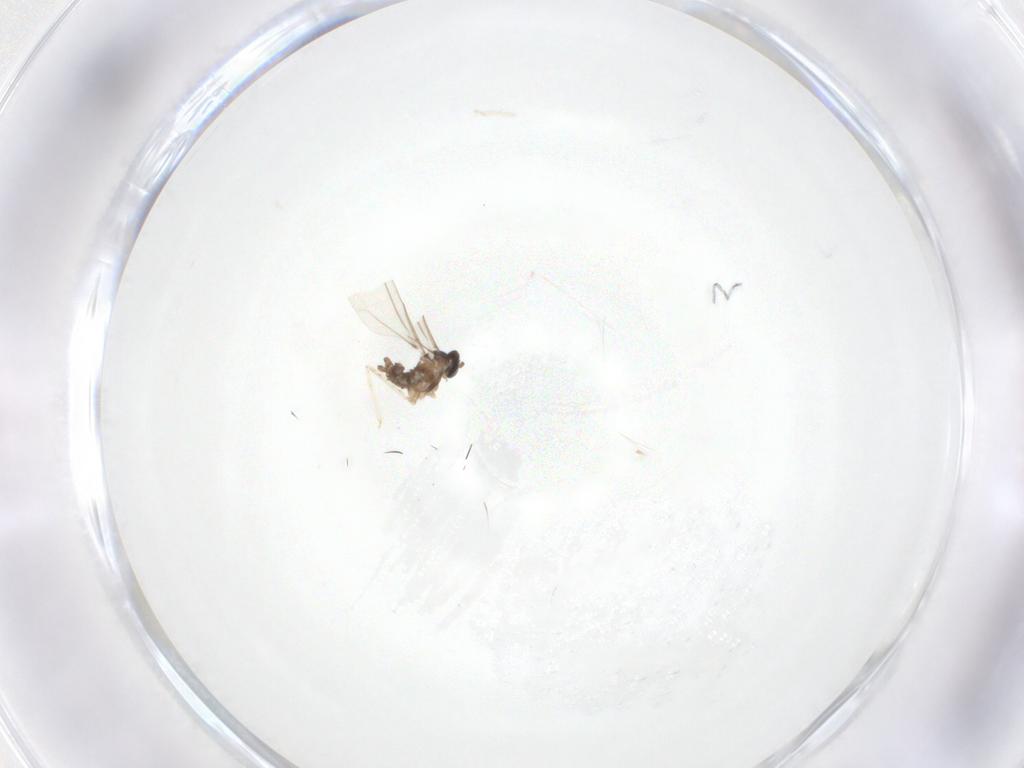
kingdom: Animalia
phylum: Arthropoda
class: Insecta
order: Diptera
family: Cecidomyiidae
